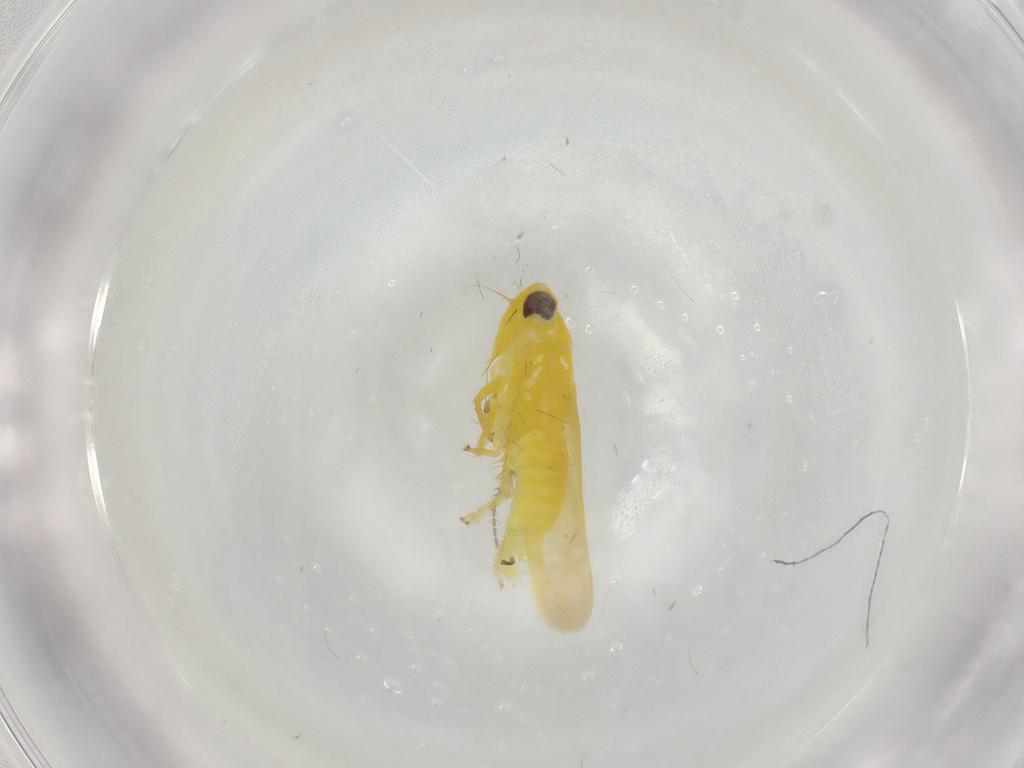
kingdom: Animalia
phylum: Arthropoda
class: Insecta
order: Hemiptera
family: Cicadellidae
